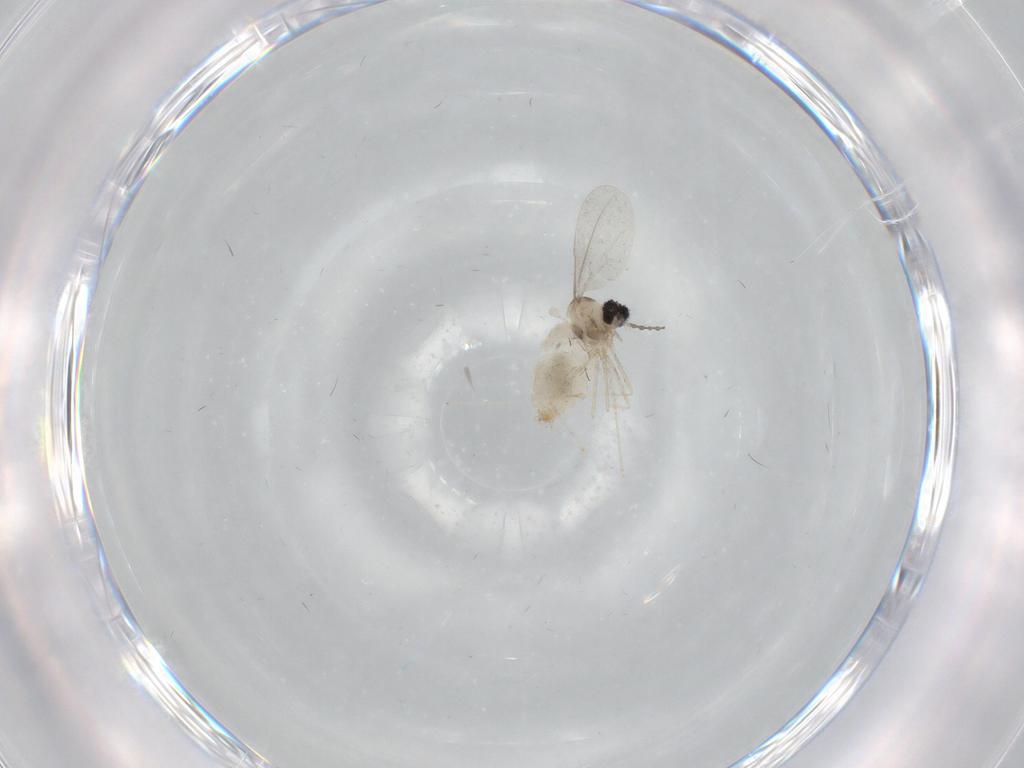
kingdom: Animalia
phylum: Arthropoda
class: Insecta
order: Diptera
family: Cecidomyiidae
